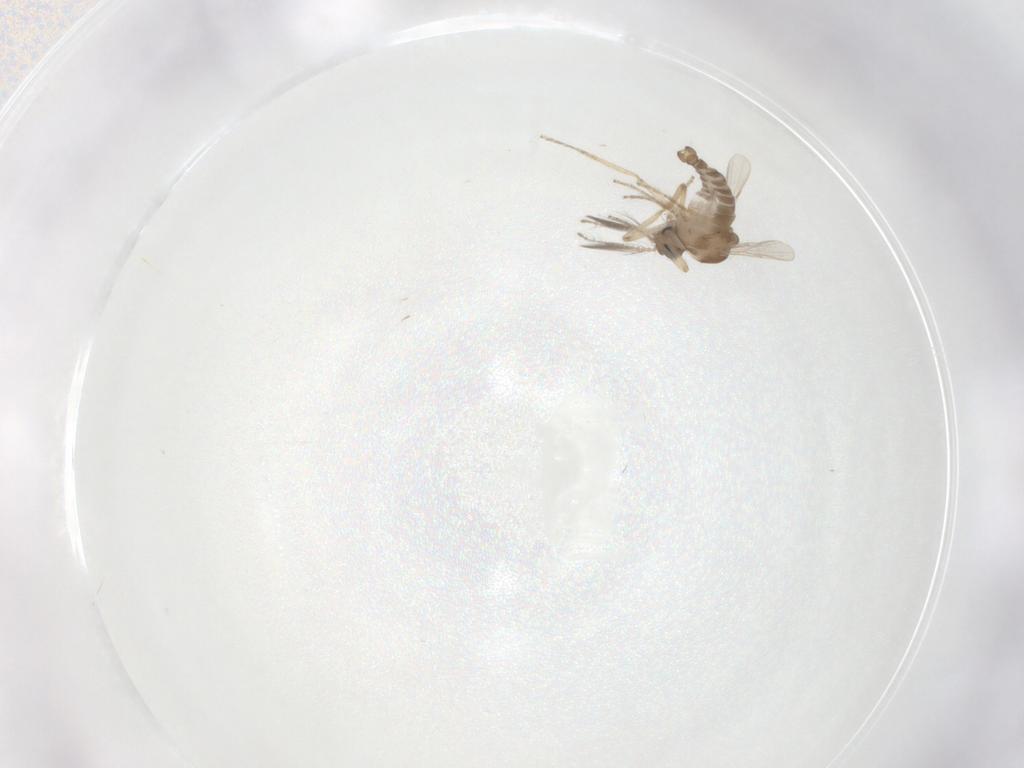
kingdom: Animalia
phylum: Arthropoda
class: Insecta
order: Diptera
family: Ceratopogonidae
